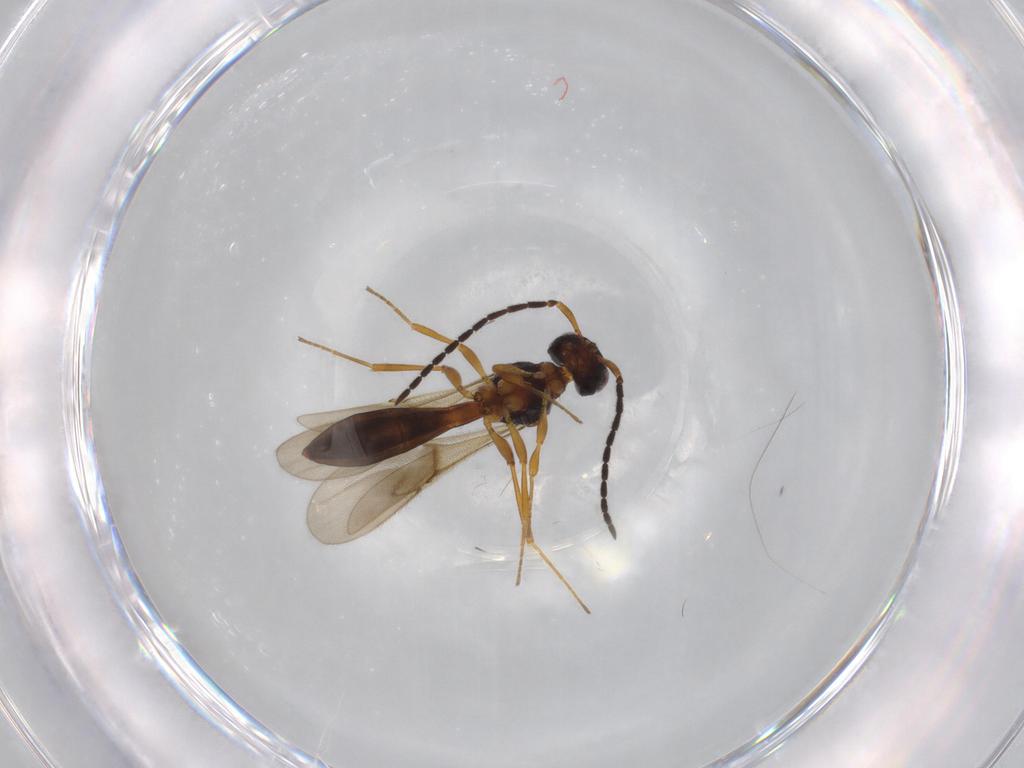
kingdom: Animalia
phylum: Arthropoda
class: Insecta
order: Hymenoptera
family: Scelionidae
